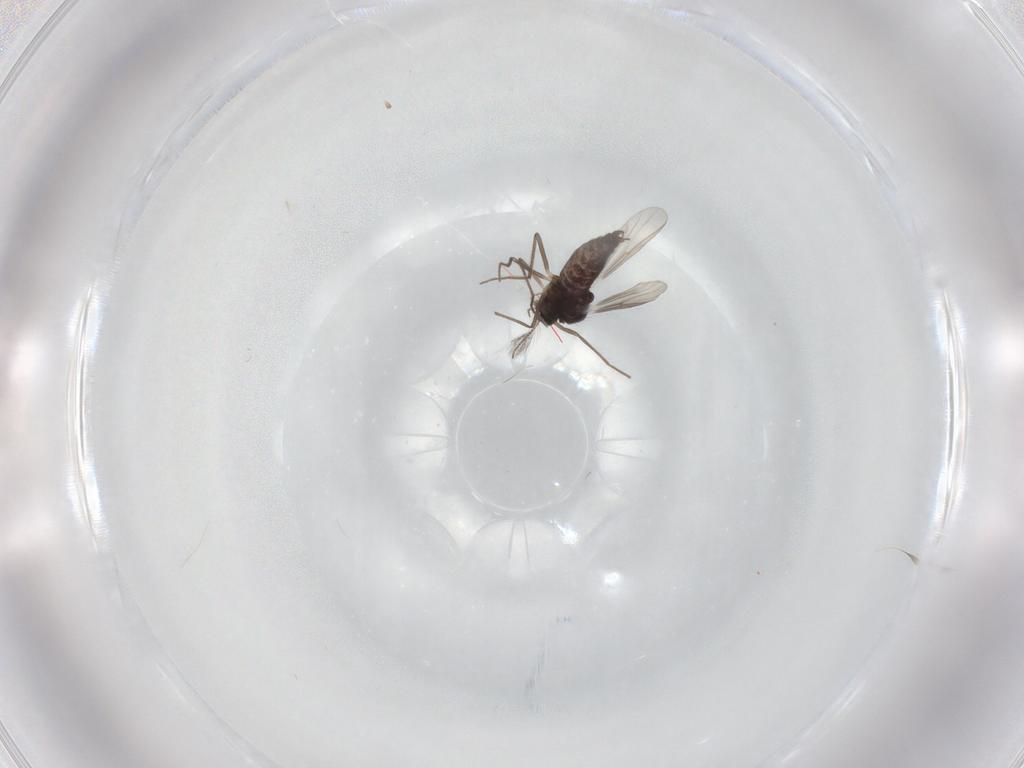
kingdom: Animalia
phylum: Arthropoda
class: Insecta
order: Diptera
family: Chironomidae
